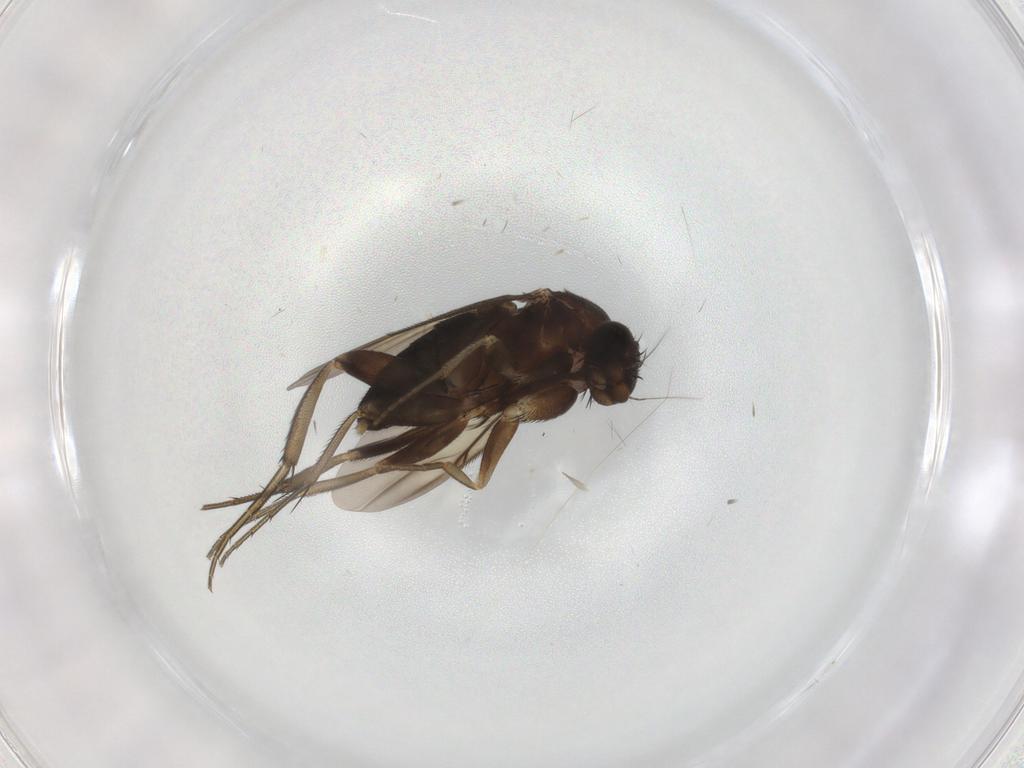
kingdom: Animalia
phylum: Arthropoda
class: Insecta
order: Diptera
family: Phoridae
